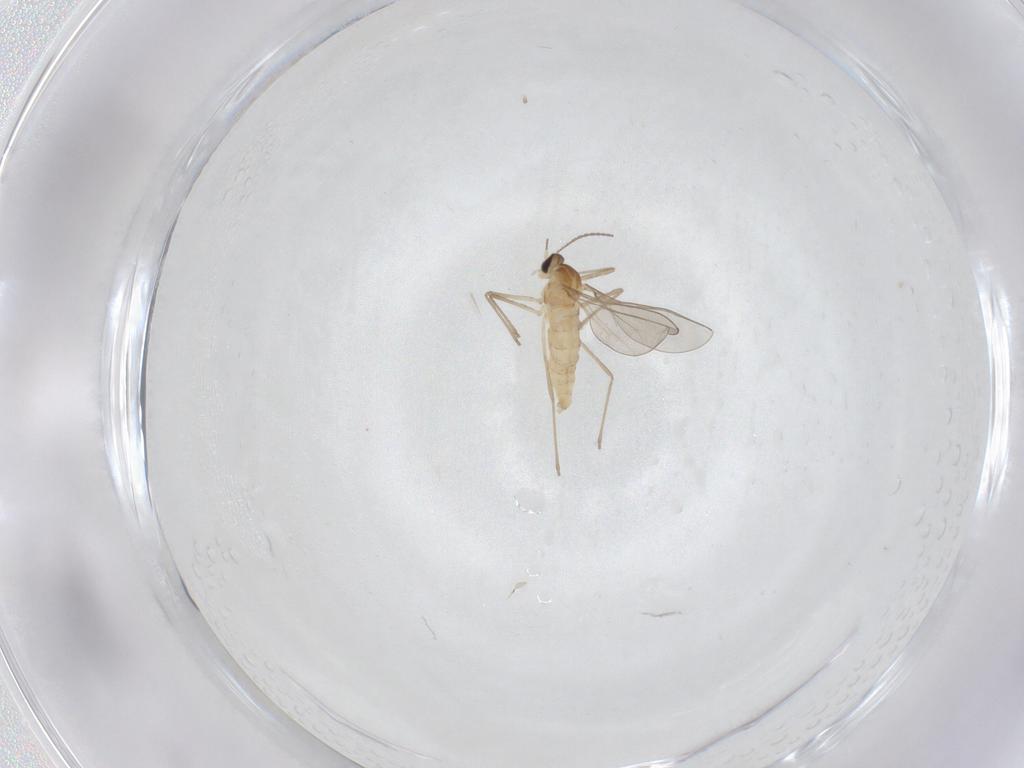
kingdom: Animalia
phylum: Arthropoda
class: Insecta
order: Diptera
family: Cecidomyiidae
